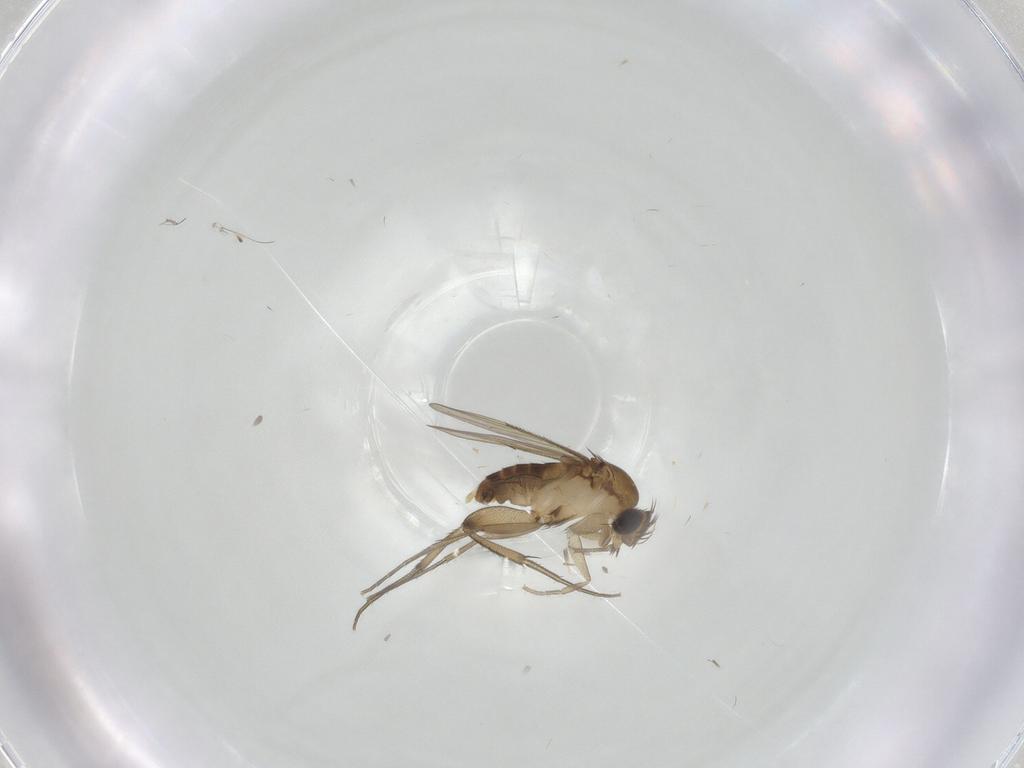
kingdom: Animalia
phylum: Arthropoda
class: Insecta
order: Diptera
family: Phoridae
